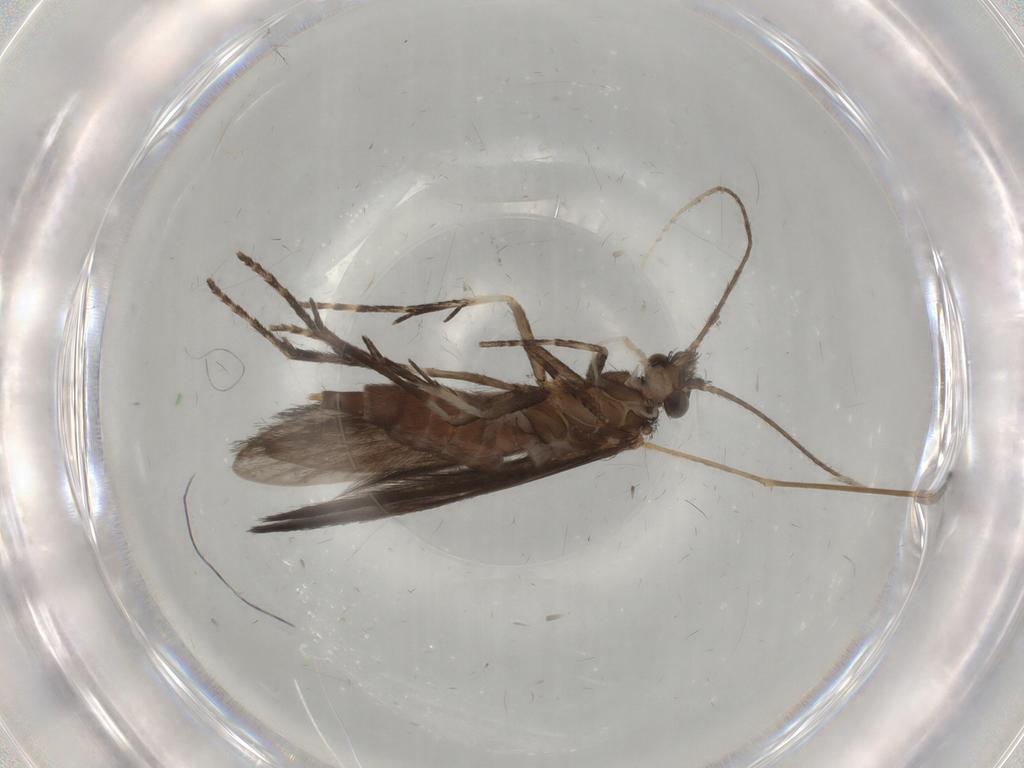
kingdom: Animalia
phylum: Arthropoda
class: Insecta
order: Trichoptera
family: Xiphocentronidae
